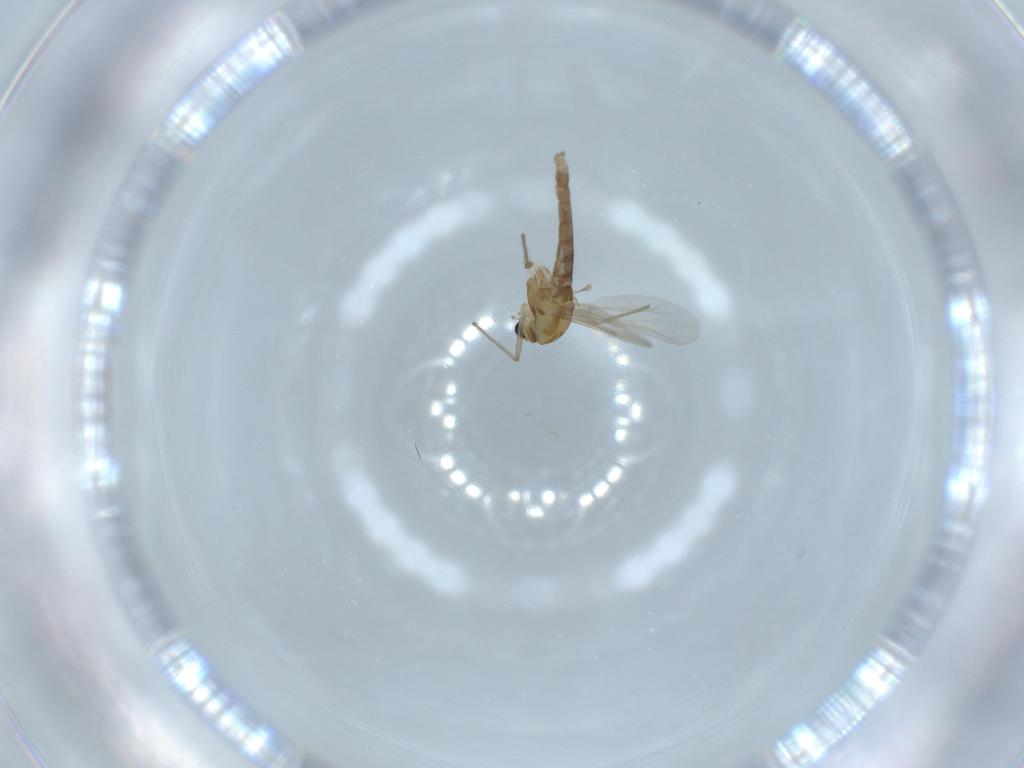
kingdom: Animalia
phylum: Arthropoda
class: Insecta
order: Diptera
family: Chironomidae
